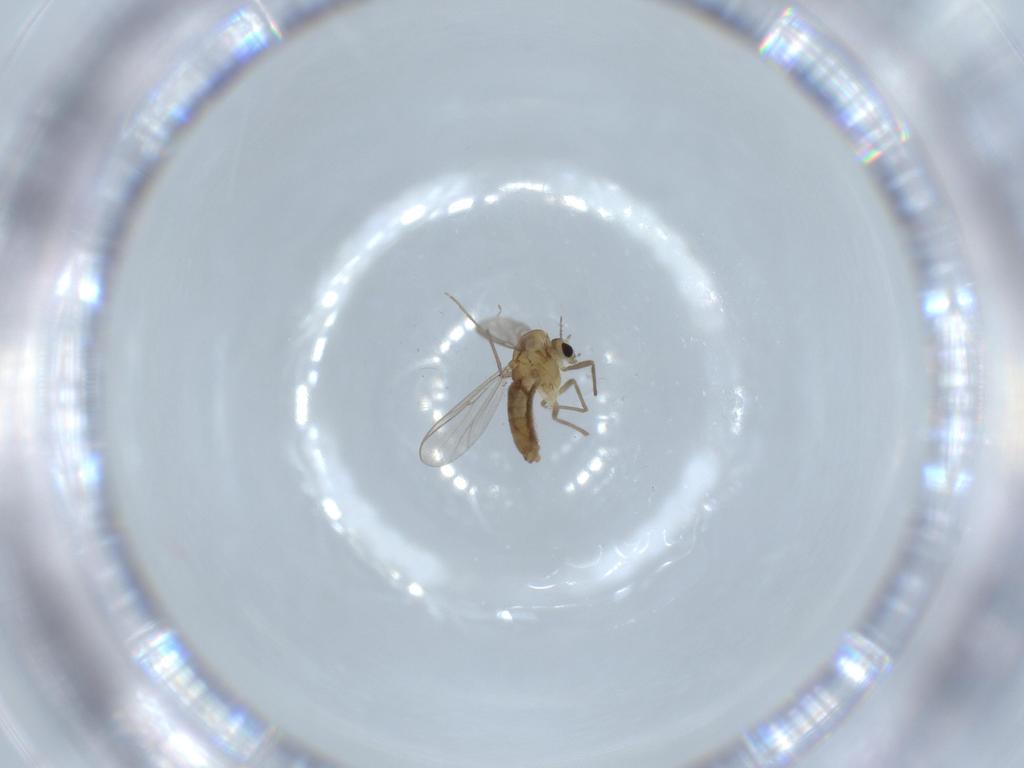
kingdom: Animalia
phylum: Arthropoda
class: Insecta
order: Diptera
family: Chironomidae
